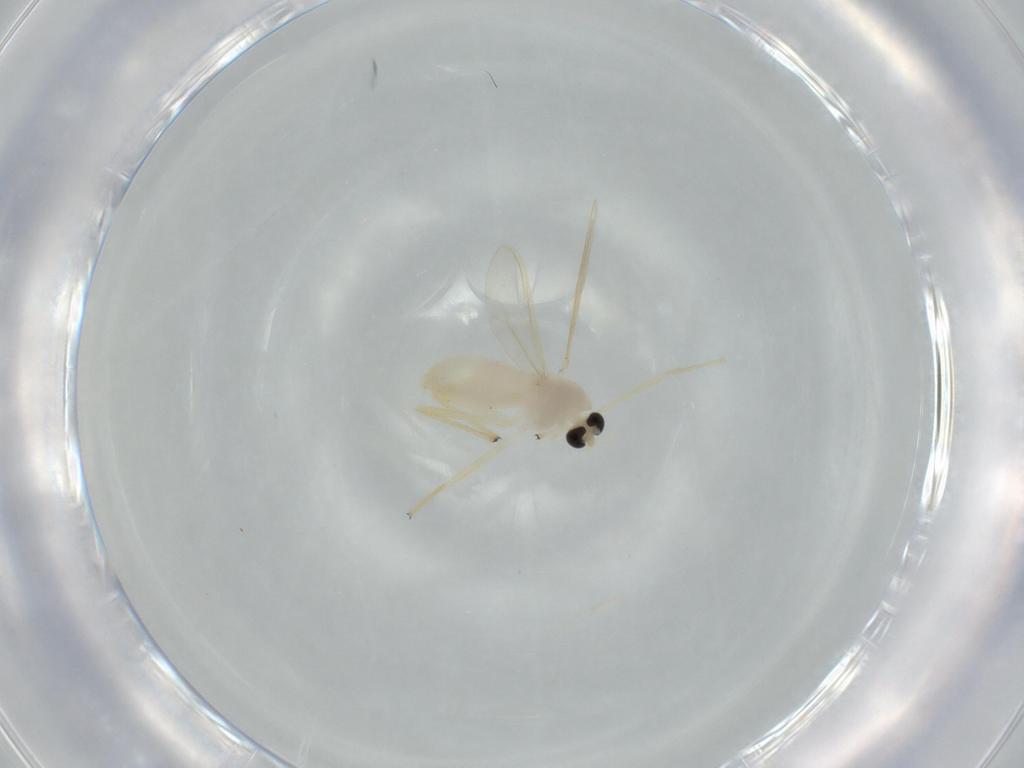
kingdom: Animalia
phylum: Arthropoda
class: Insecta
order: Diptera
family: Chironomidae
